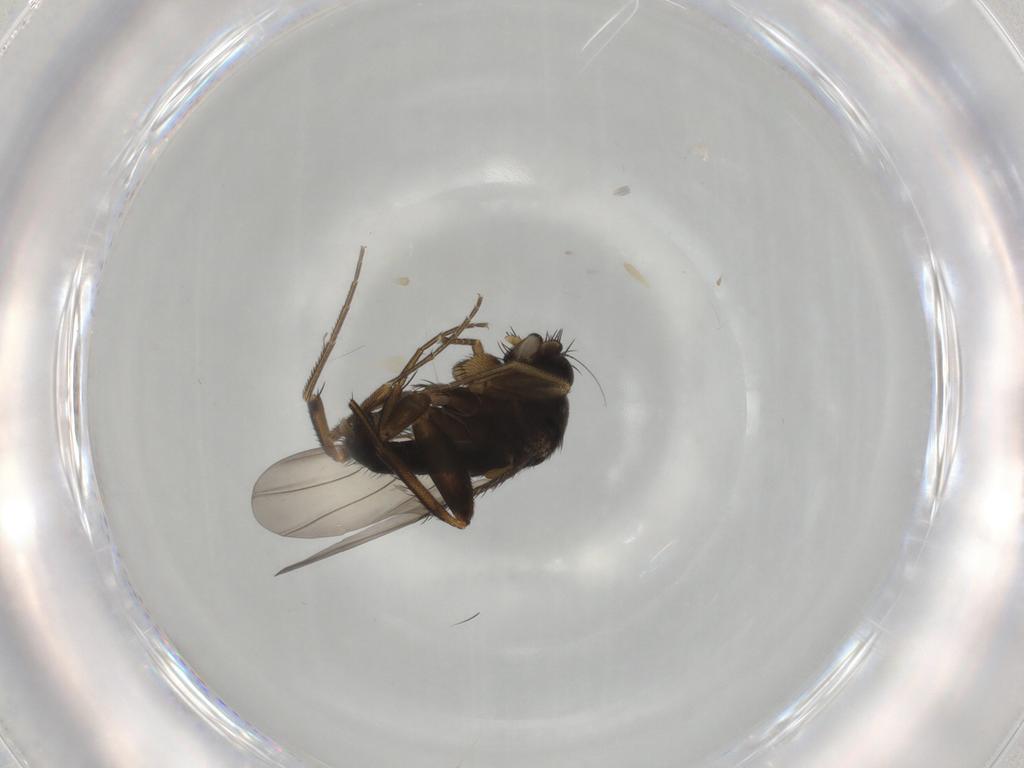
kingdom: Animalia
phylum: Arthropoda
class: Insecta
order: Diptera
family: Phoridae
